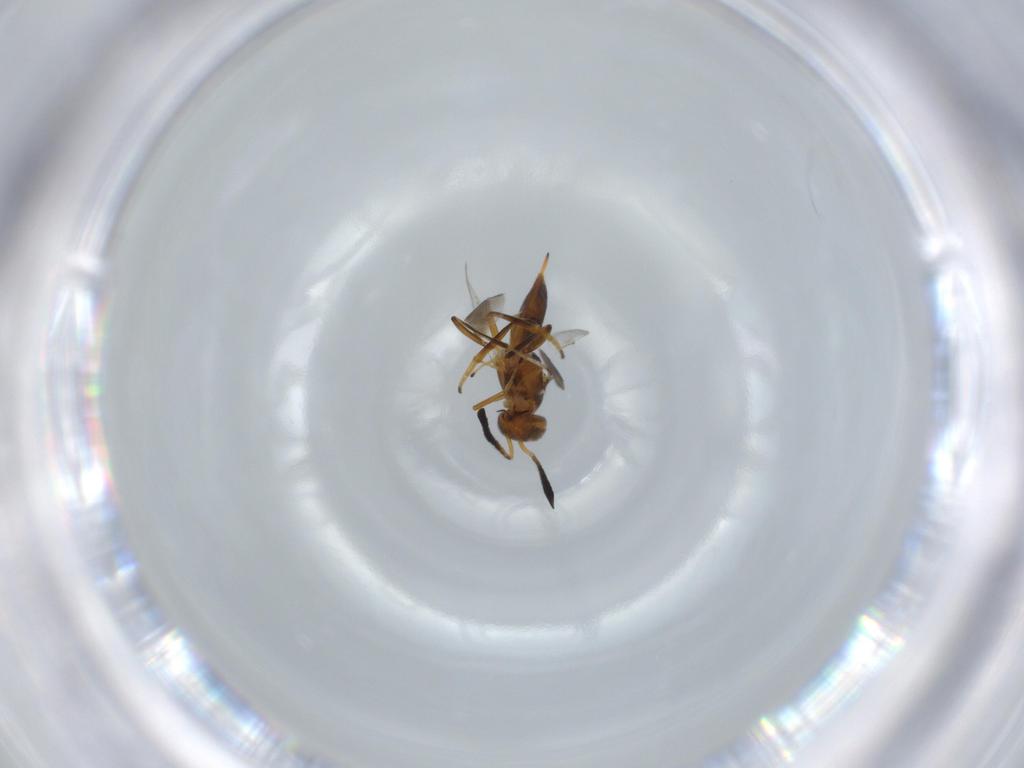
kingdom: Animalia
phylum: Arthropoda
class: Insecta
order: Hymenoptera
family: Encyrtidae
